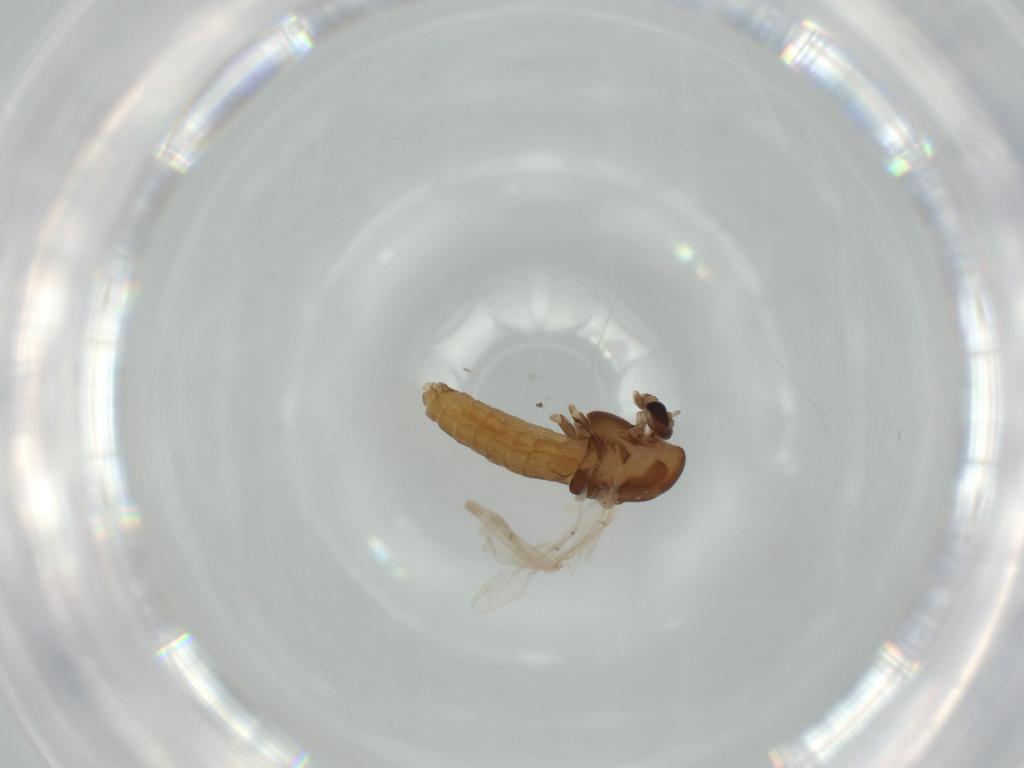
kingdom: Animalia
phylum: Arthropoda
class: Insecta
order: Diptera
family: Chironomidae
